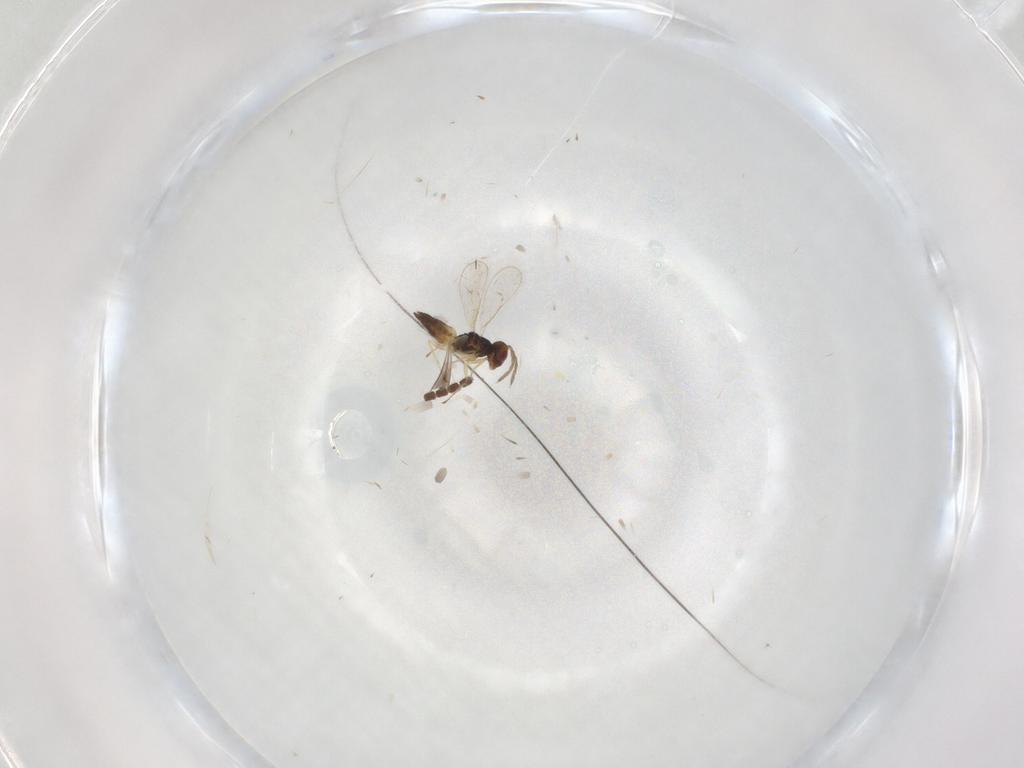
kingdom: Animalia
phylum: Arthropoda
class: Insecta
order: Hymenoptera
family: Eulophidae
